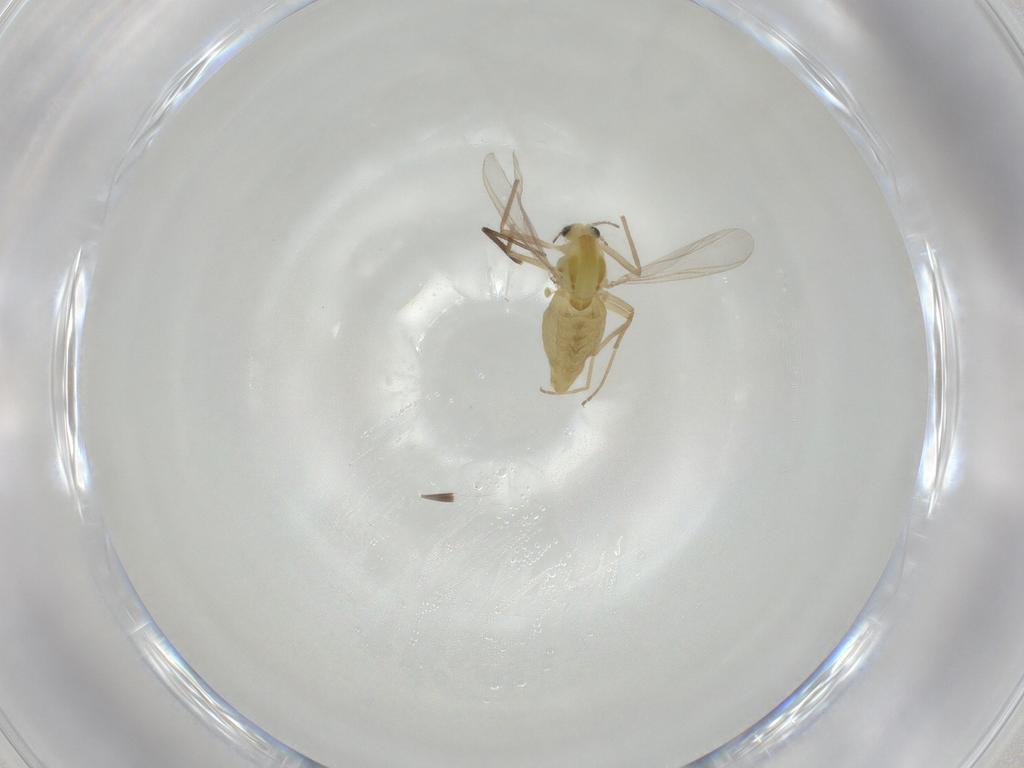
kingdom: Animalia
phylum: Arthropoda
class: Insecta
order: Diptera
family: Chironomidae
